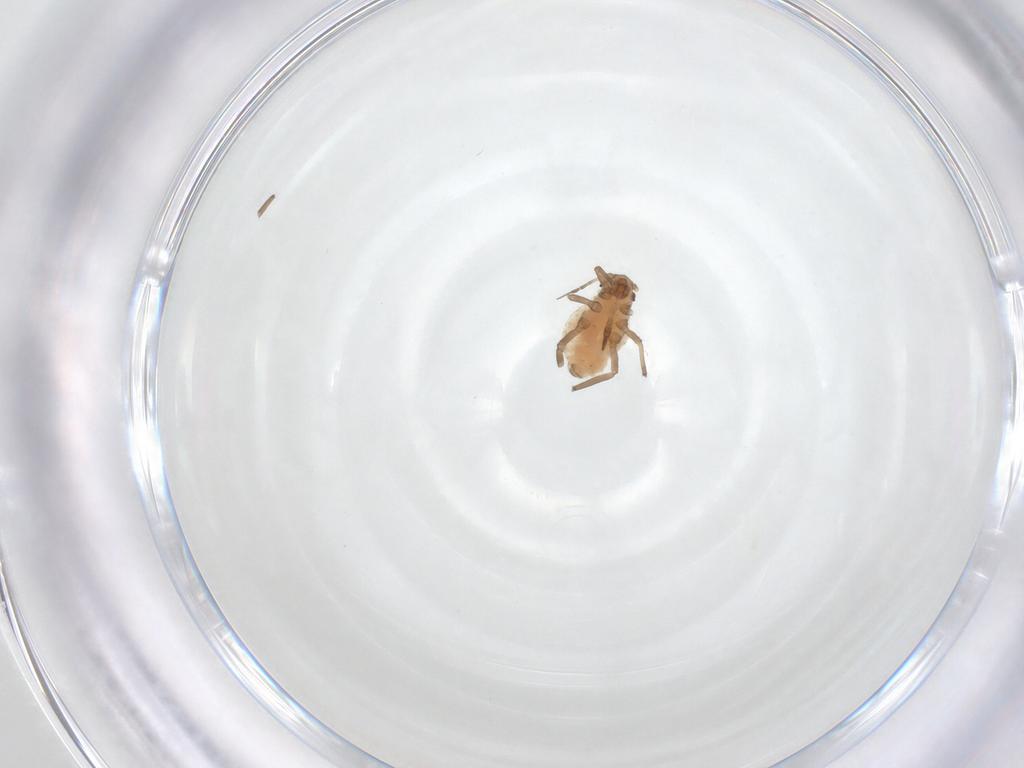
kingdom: Animalia
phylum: Arthropoda
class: Insecta
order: Hemiptera
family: Aphididae
